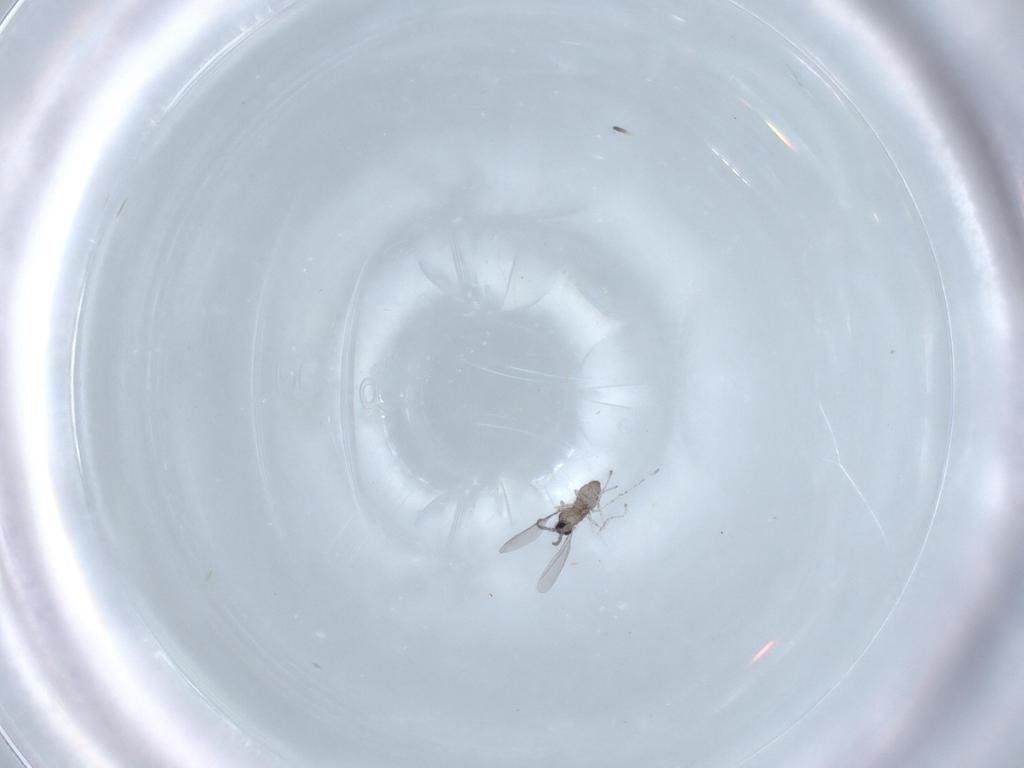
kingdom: Animalia
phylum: Arthropoda
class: Insecta
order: Diptera
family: Cecidomyiidae
